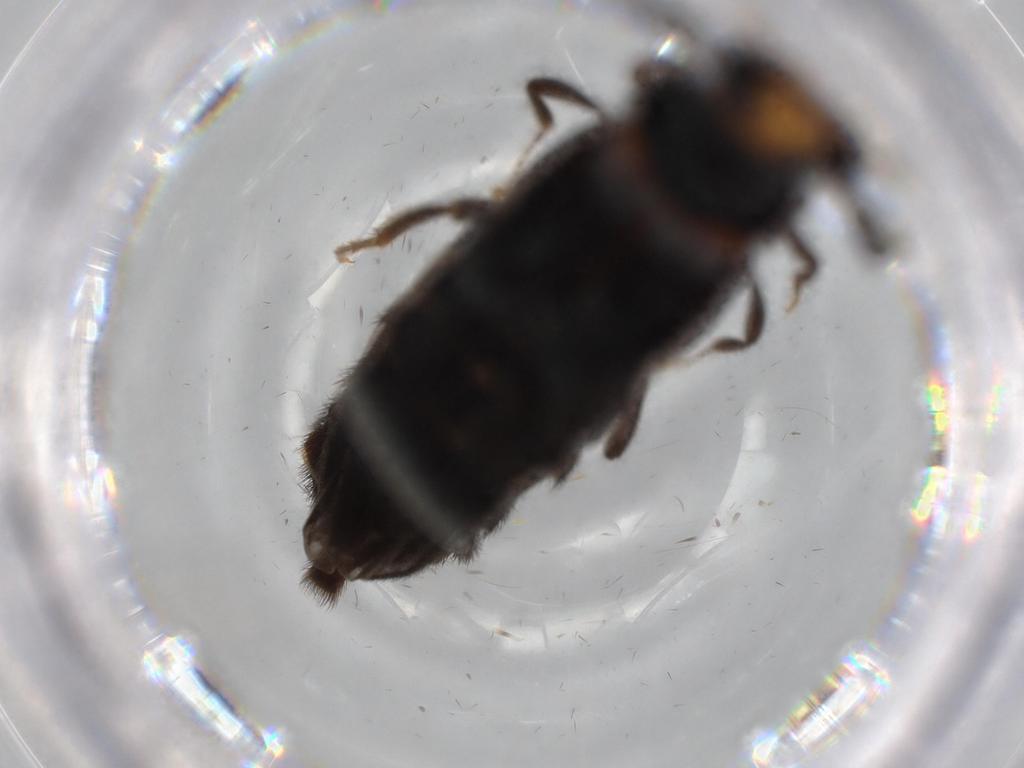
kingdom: Animalia
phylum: Arthropoda
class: Insecta
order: Coleoptera
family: Phengodidae
